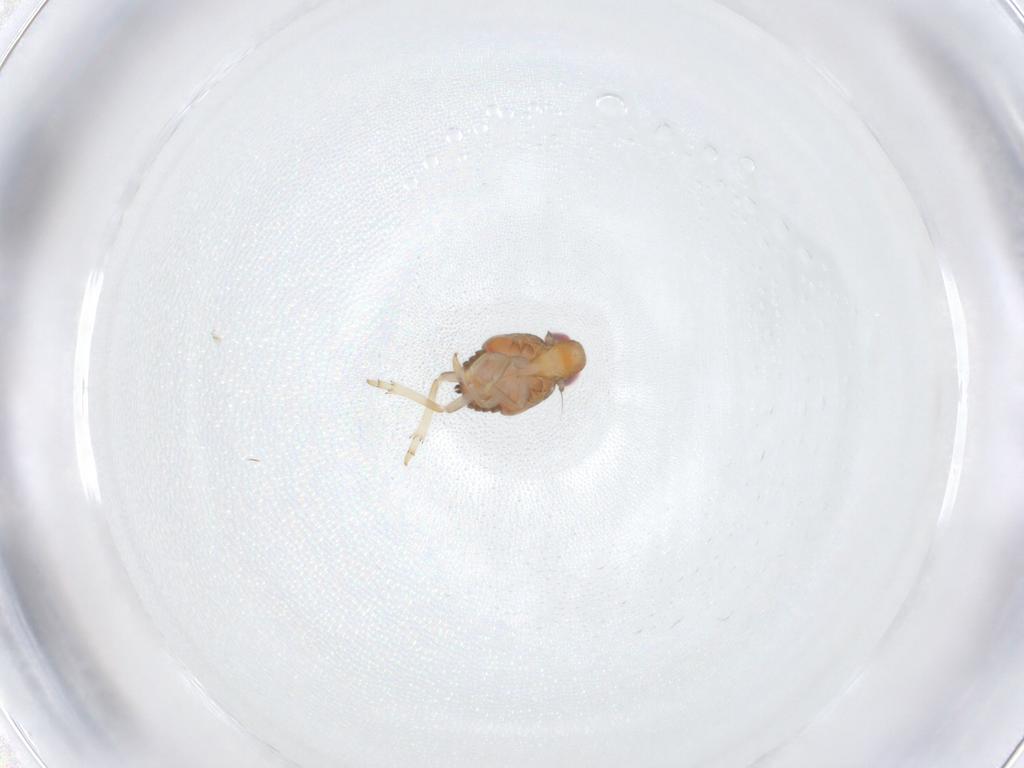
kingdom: Animalia
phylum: Arthropoda
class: Insecta
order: Hemiptera
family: Issidae
